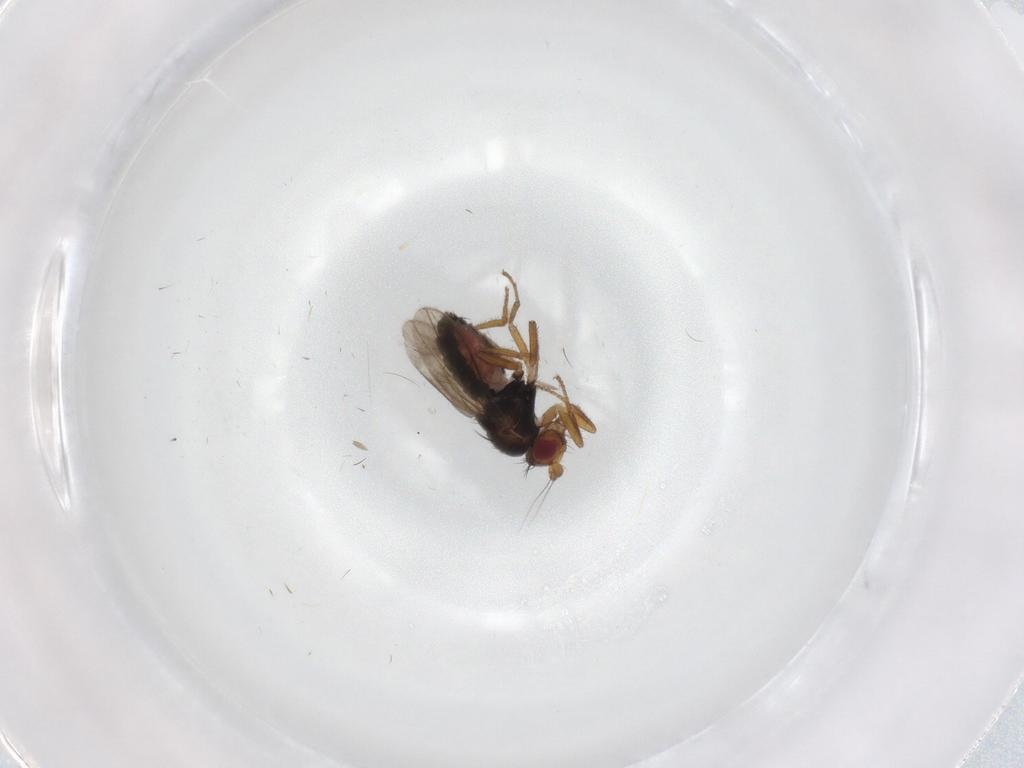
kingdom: Animalia
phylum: Arthropoda
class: Insecta
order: Diptera
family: Sphaeroceridae
